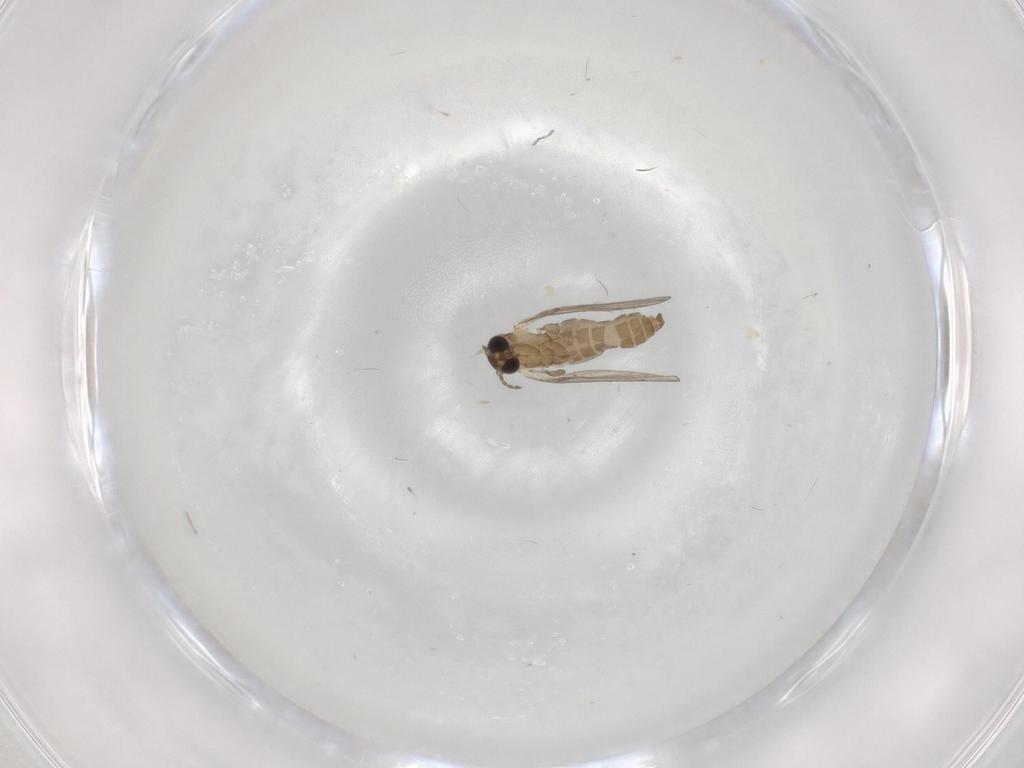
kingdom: Animalia
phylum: Arthropoda
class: Insecta
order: Diptera
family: Psychodidae
